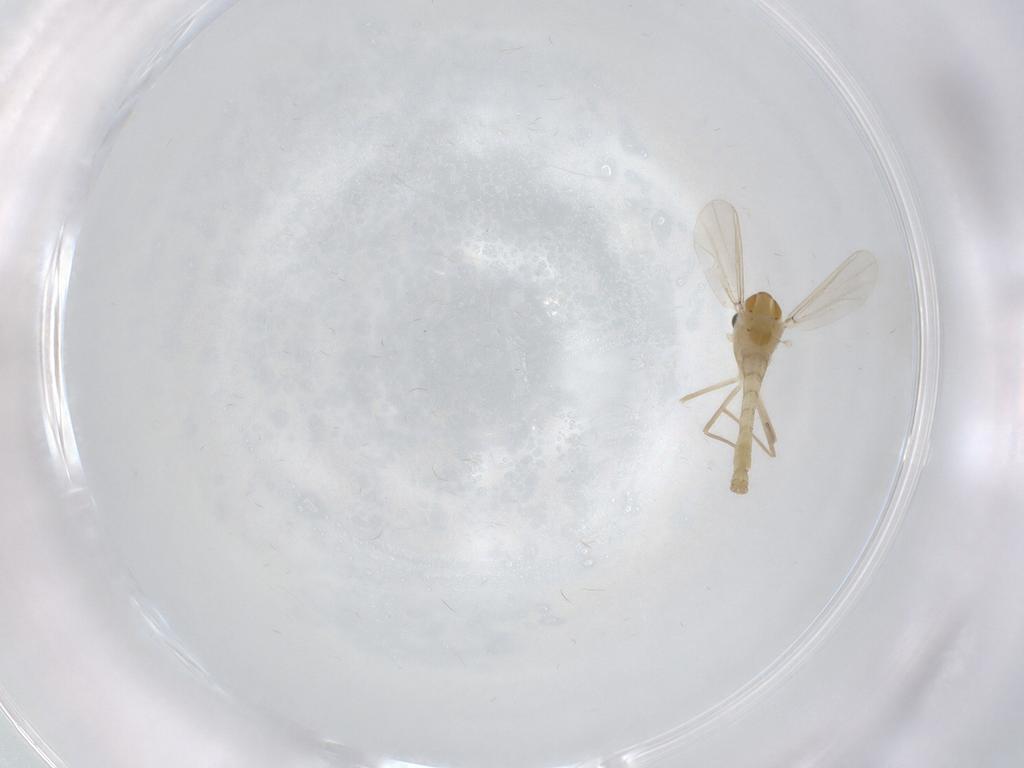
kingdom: Animalia
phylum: Arthropoda
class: Insecta
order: Diptera
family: Chironomidae
